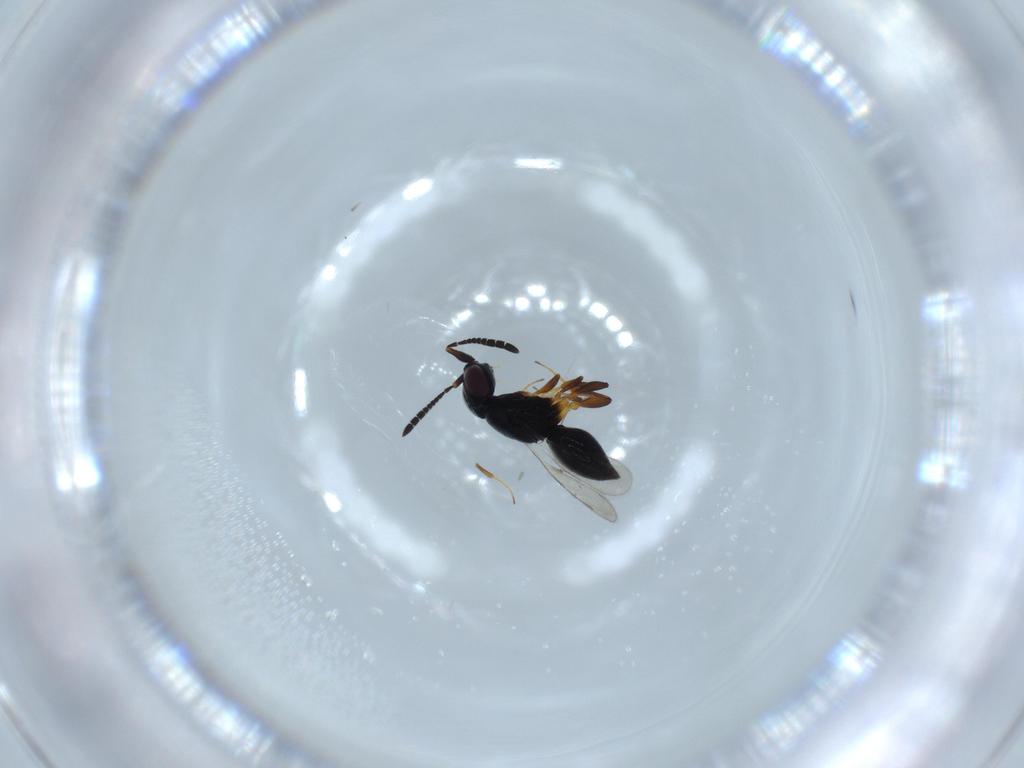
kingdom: Animalia
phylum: Arthropoda
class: Insecta
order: Hymenoptera
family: Ceraphronidae
